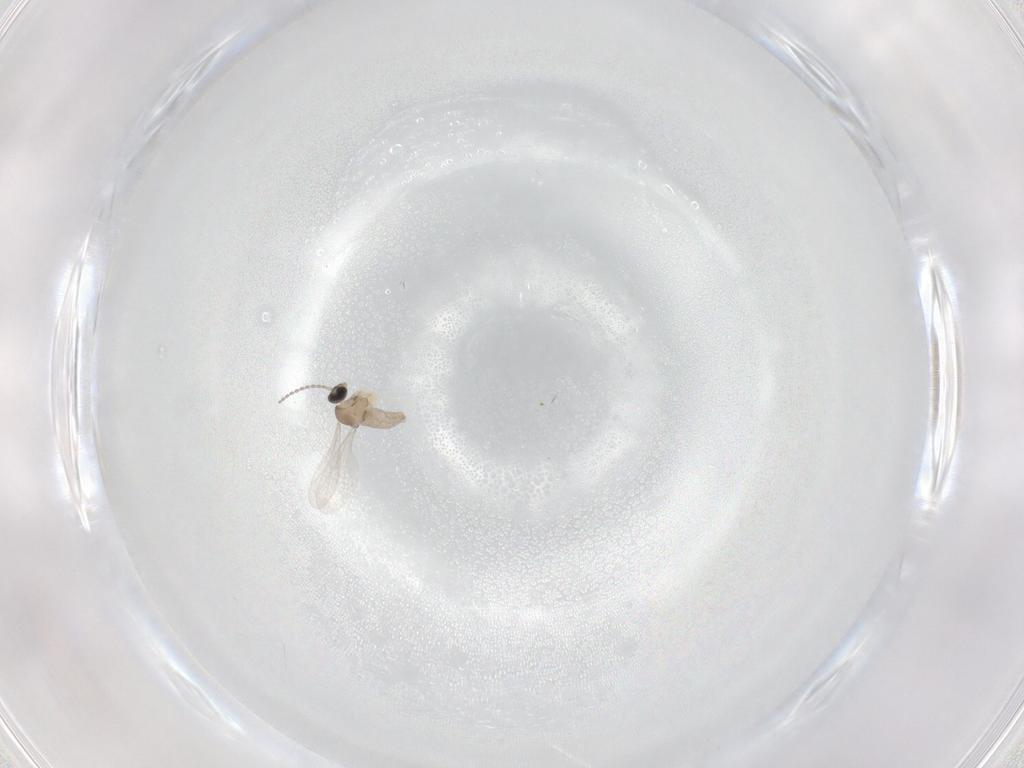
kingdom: Animalia
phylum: Arthropoda
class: Insecta
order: Diptera
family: Cecidomyiidae
